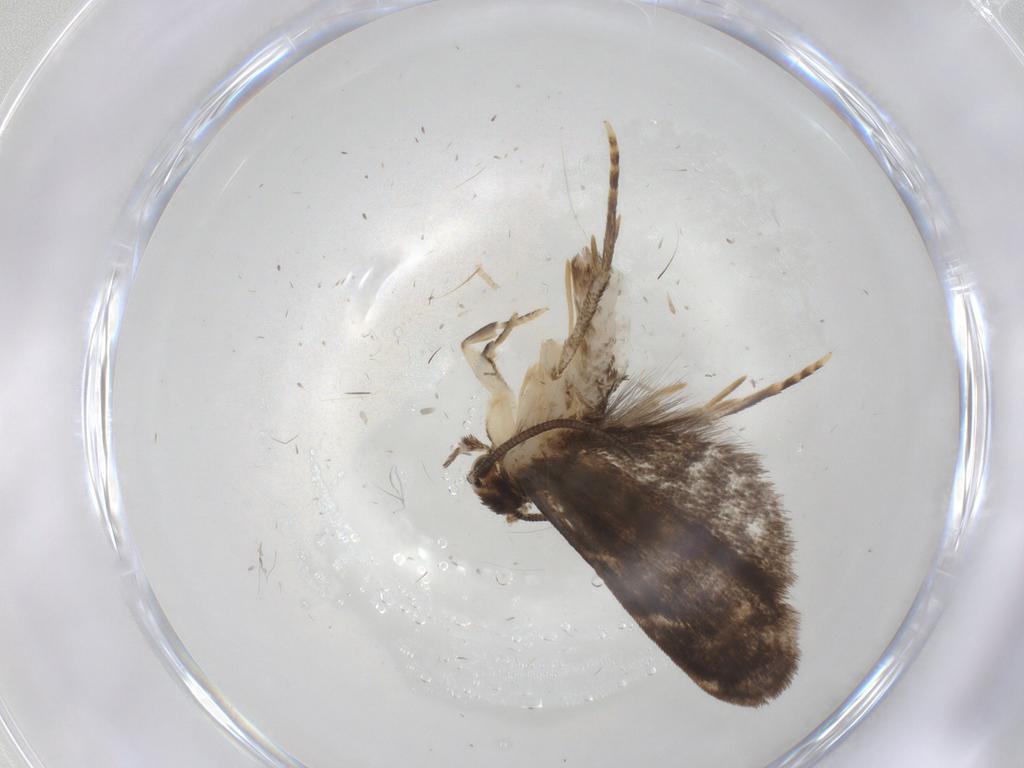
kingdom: Animalia
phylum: Arthropoda
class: Insecta
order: Lepidoptera
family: Dryadaulidae
